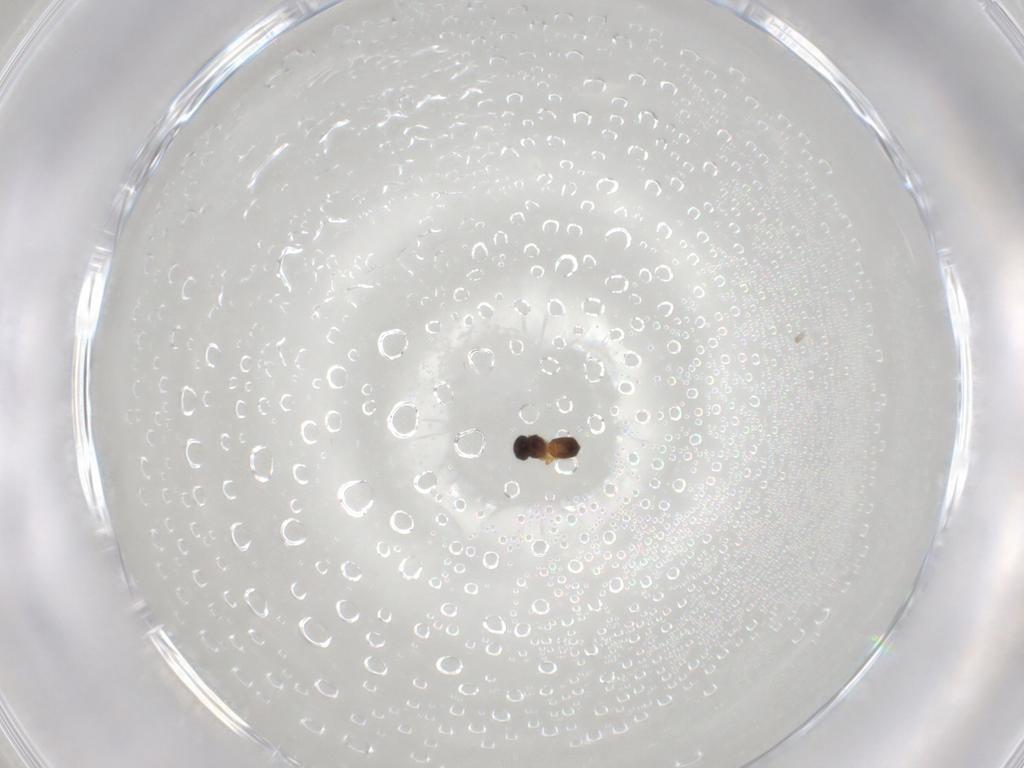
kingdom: Animalia
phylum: Arthropoda
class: Insecta
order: Hymenoptera
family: Platygastridae
